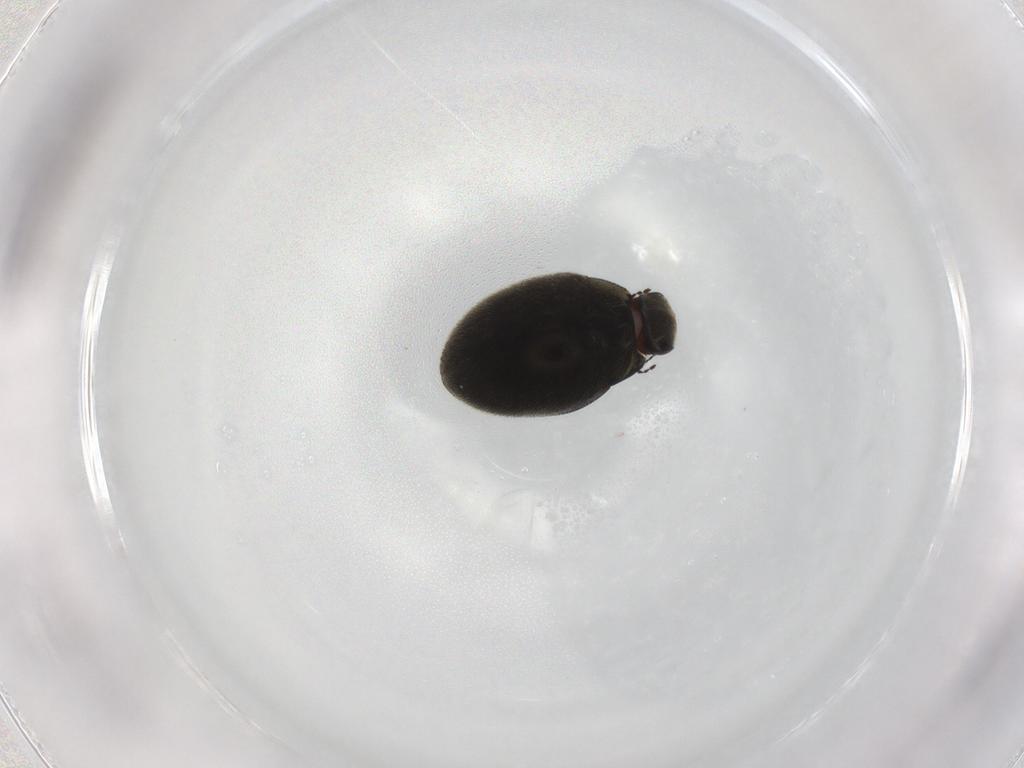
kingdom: Animalia
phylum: Arthropoda
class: Insecta
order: Coleoptera
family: Limnichidae
